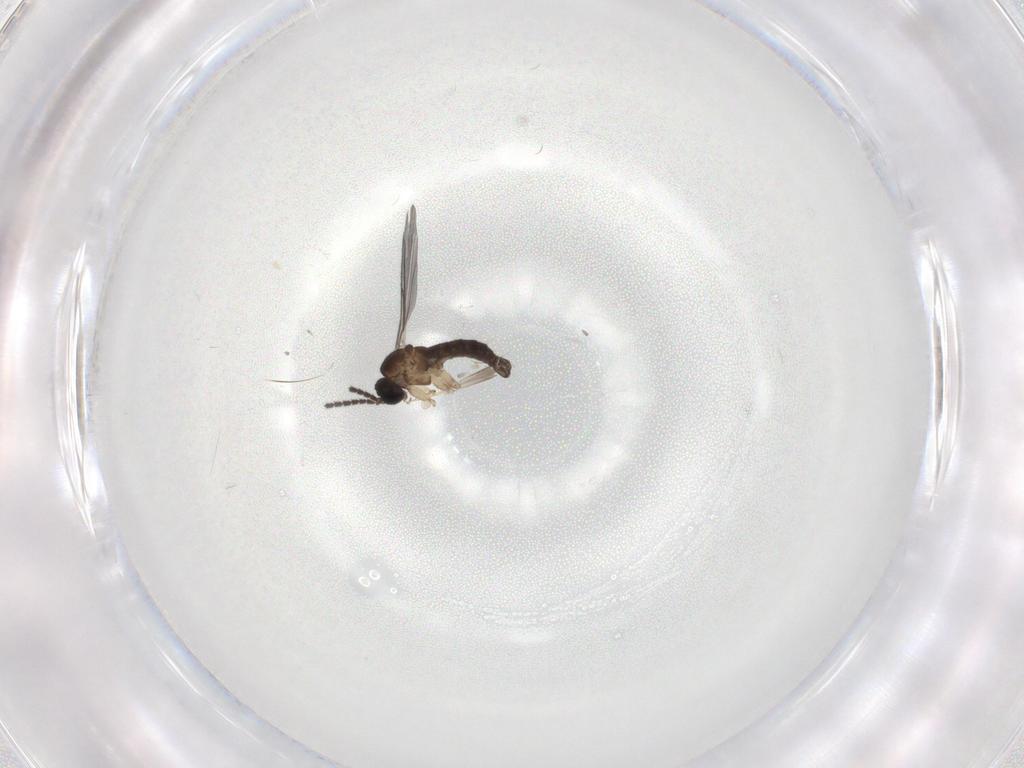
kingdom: Animalia
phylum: Arthropoda
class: Insecta
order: Diptera
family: Sciaridae
